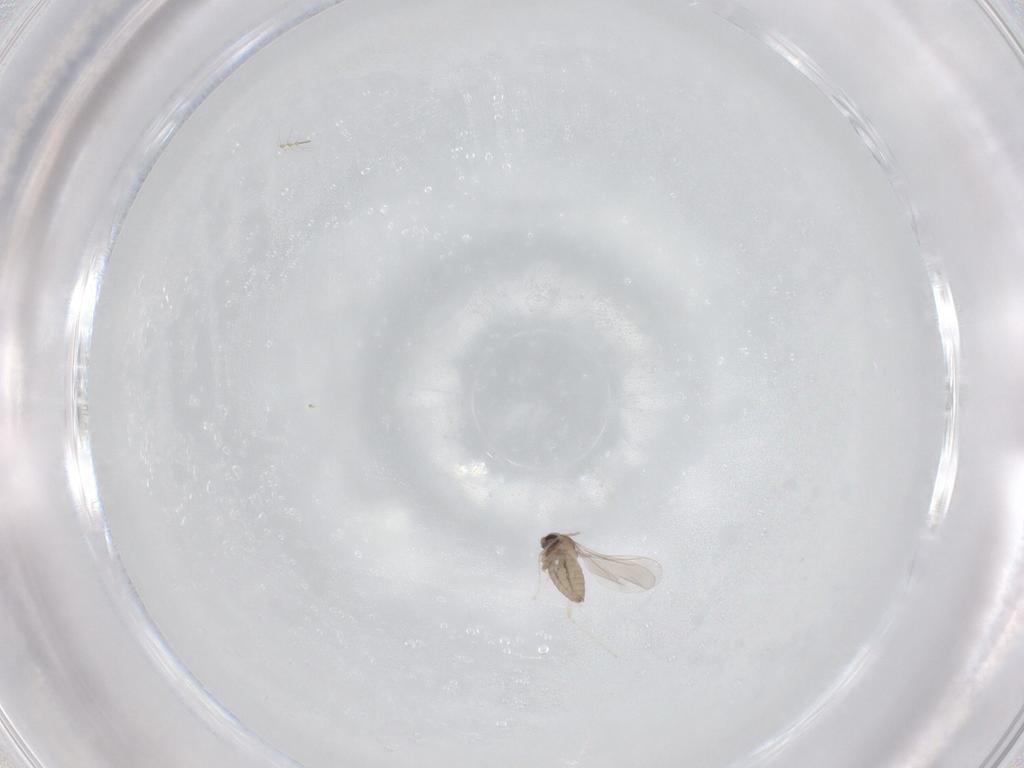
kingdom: Animalia
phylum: Arthropoda
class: Insecta
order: Diptera
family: Cecidomyiidae
